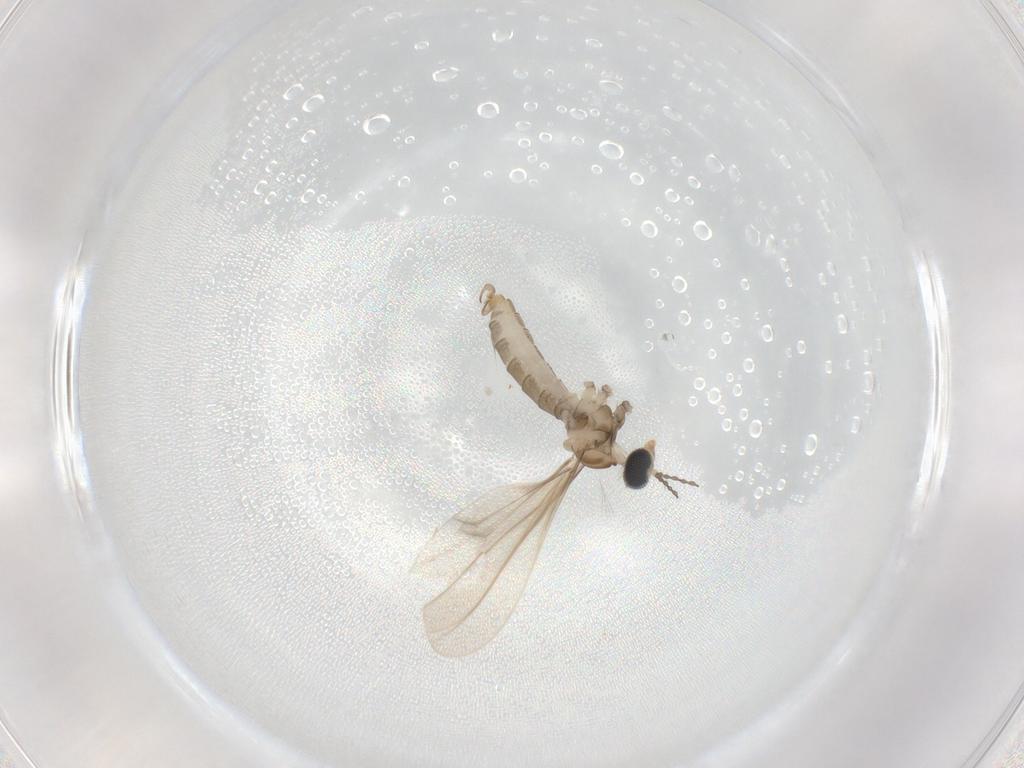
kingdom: Animalia
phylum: Arthropoda
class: Insecta
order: Diptera
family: Cecidomyiidae
